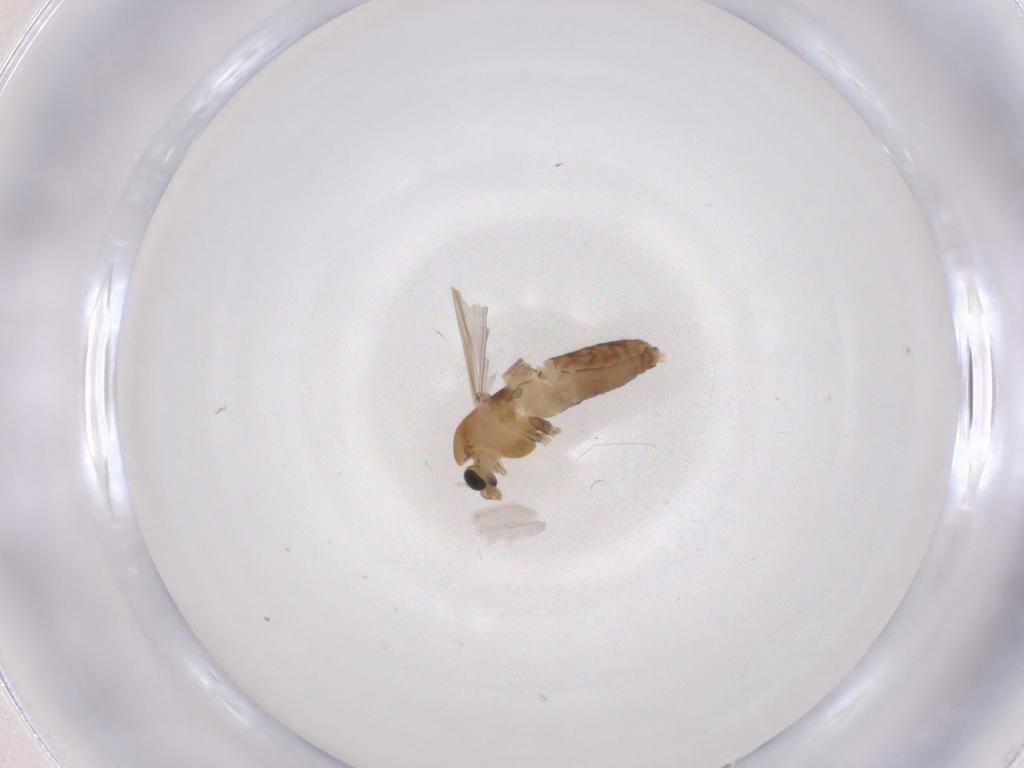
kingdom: Animalia
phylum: Arthropoda
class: Insecta
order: Diptera
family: Chironomidae
